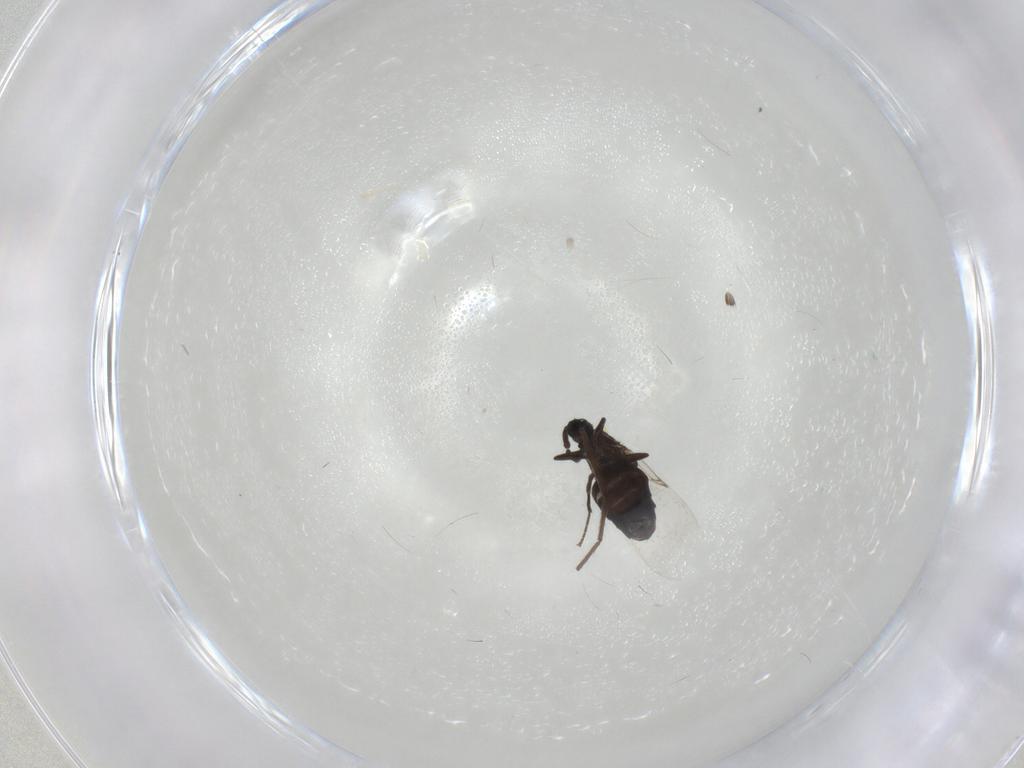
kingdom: Animalia
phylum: Arthropoda
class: Insecta
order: Diptera
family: Scatopsidae
